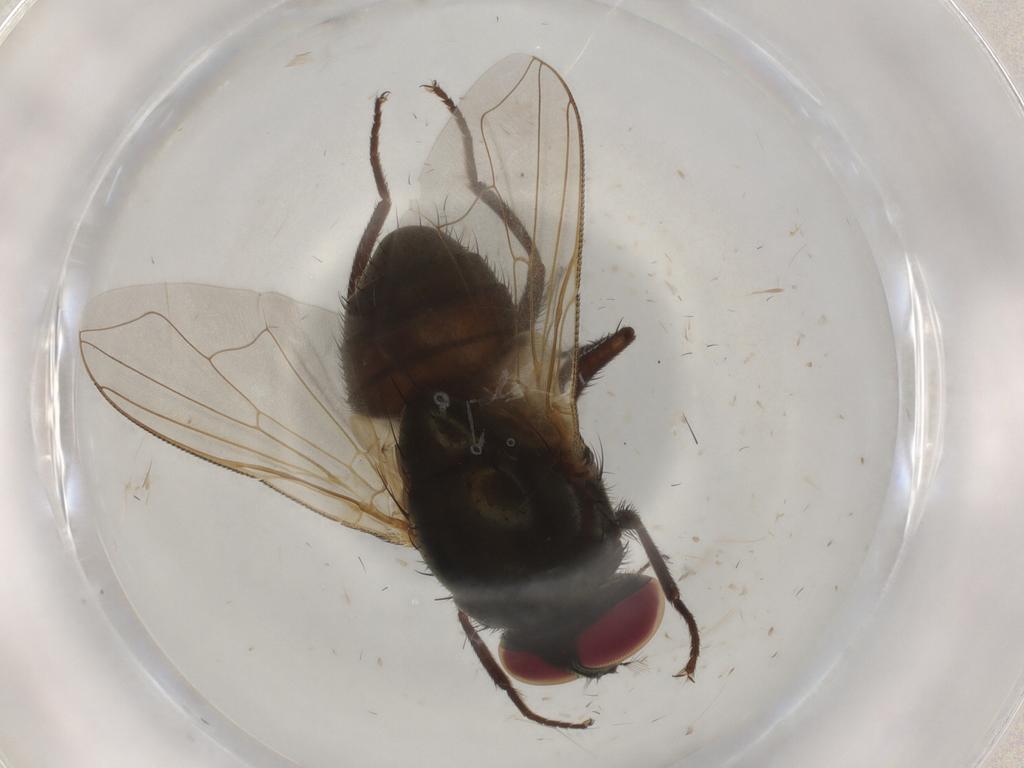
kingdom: Animalia
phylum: Arthropoda
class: Insecta
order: Diptera
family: Muscidae
